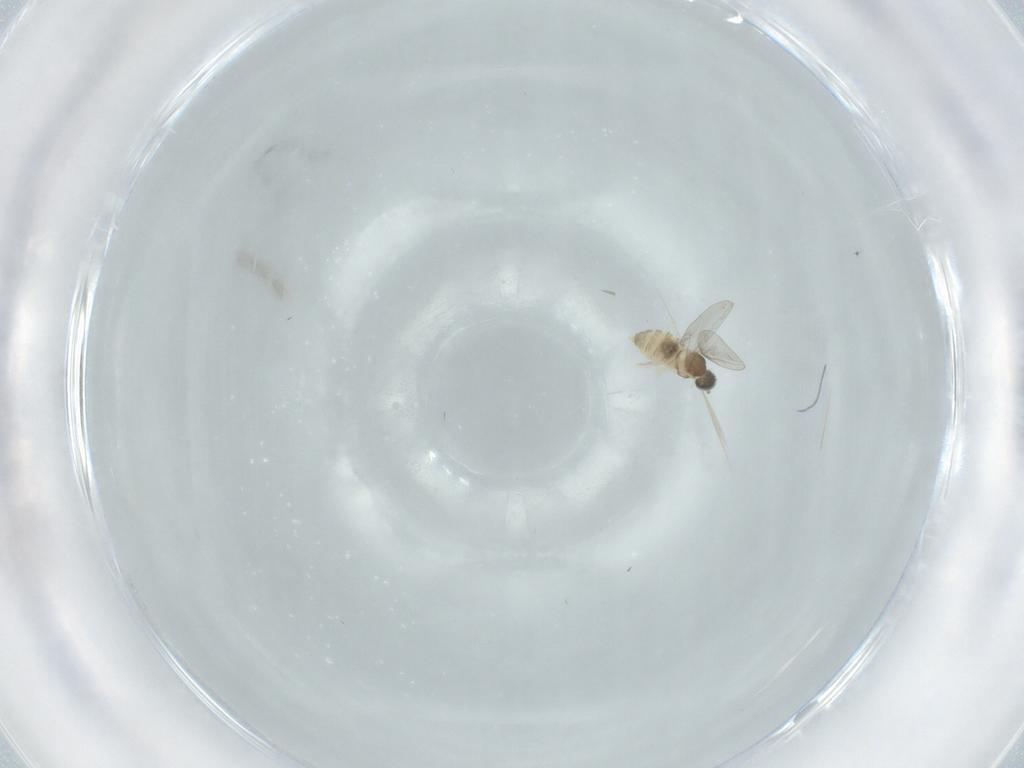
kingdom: Animalia
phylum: Arthropoda
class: Insecta
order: Diptera
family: Cecidomyiidae
